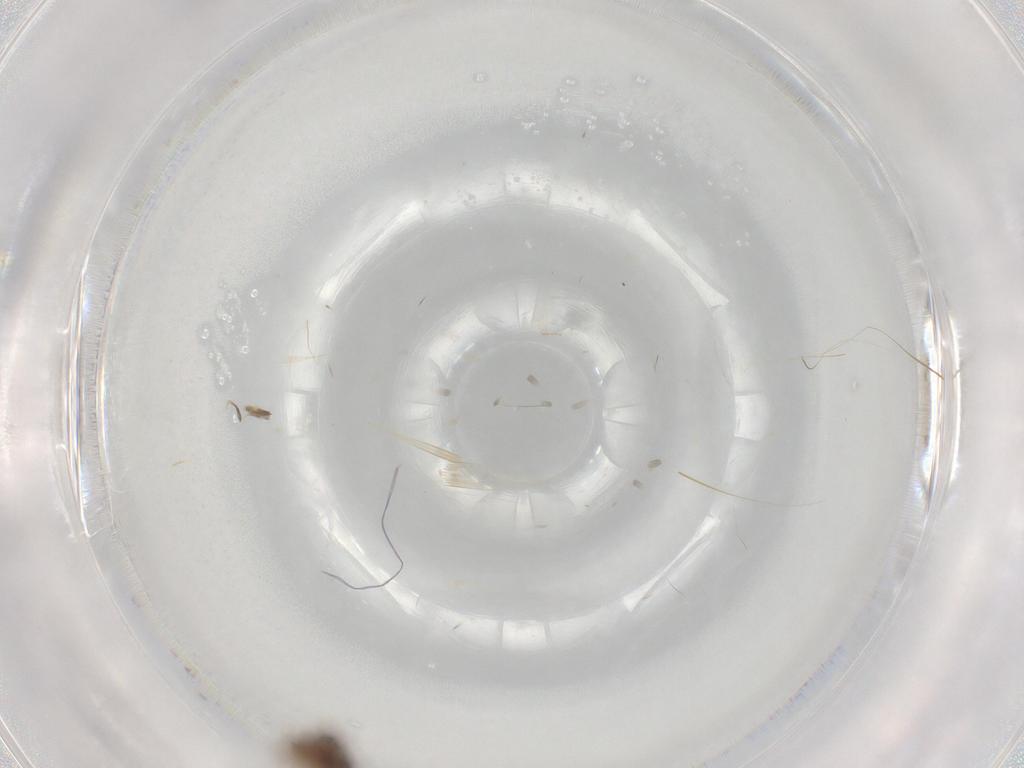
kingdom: Animalia
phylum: Arthropoda
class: Insecta
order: Hemiptera
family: Ceratocombidae
